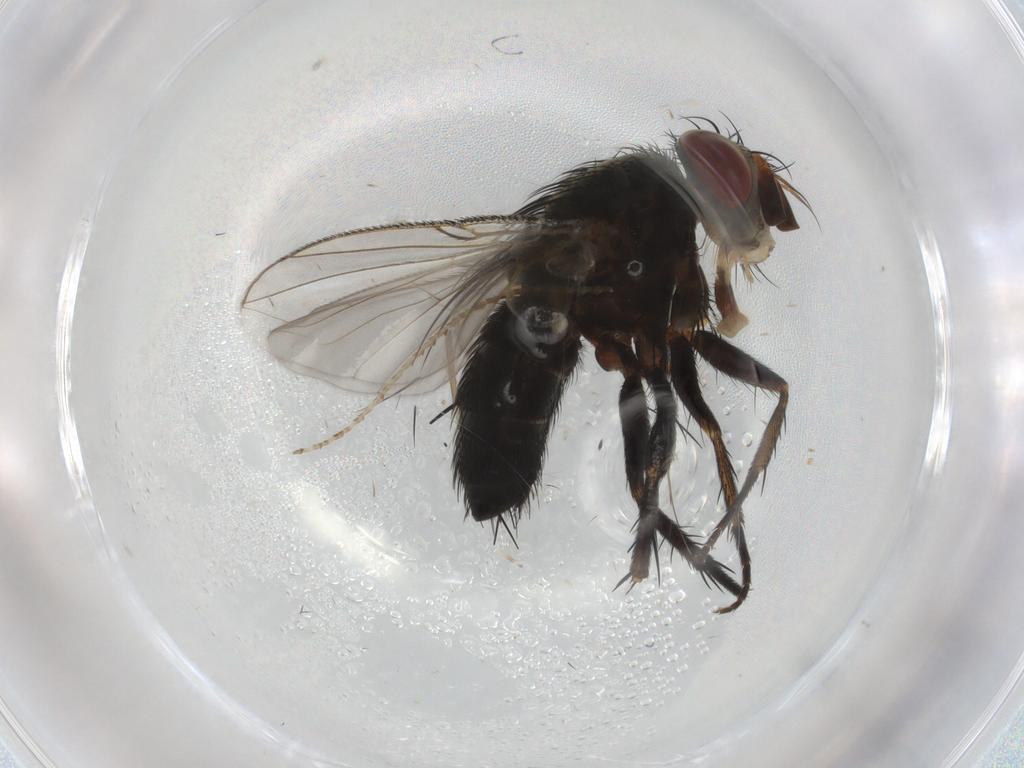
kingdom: Animalia
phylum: Arthropoda
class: Insecta
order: Diptera
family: Tachinidae
